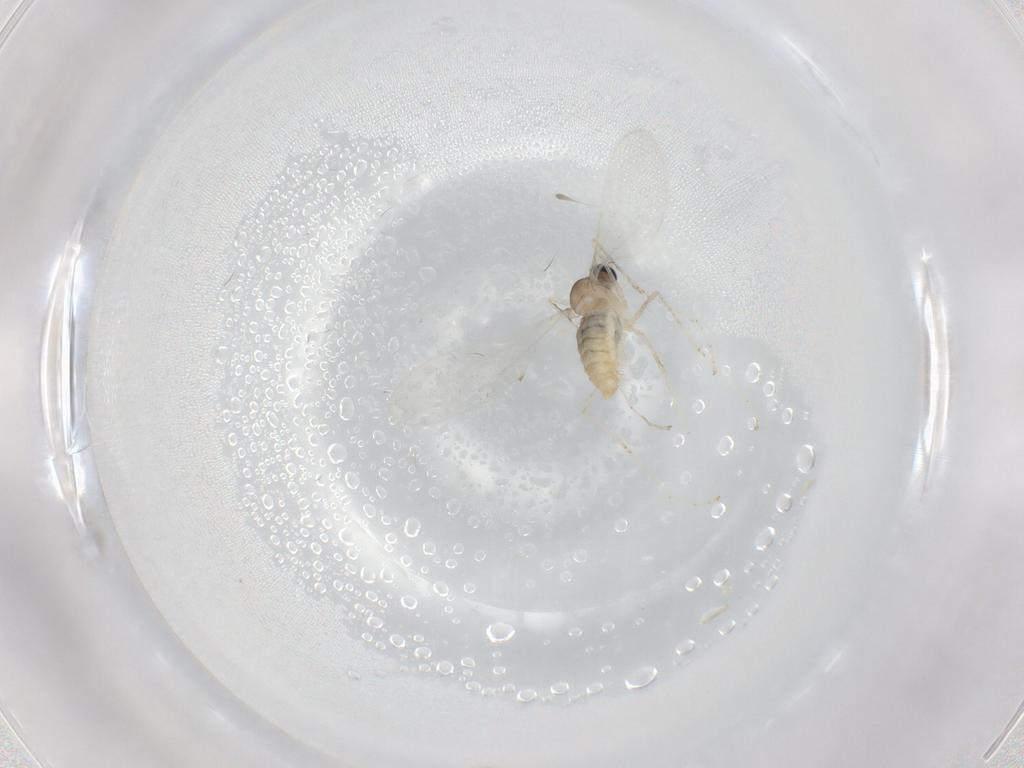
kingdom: Animalia
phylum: Arthropoda
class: Insecta
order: Diptera
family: Cecidomyiidae
